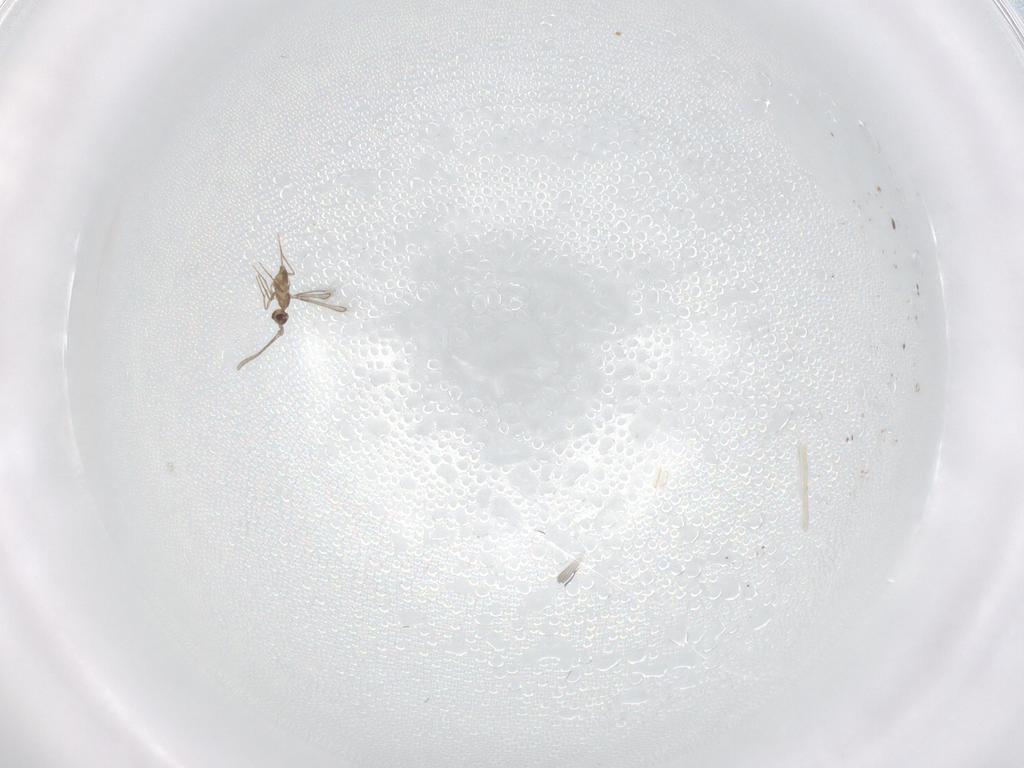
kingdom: Animalia
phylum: Arthropoda
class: Insecta
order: Hymenoptera
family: Mymaridae
